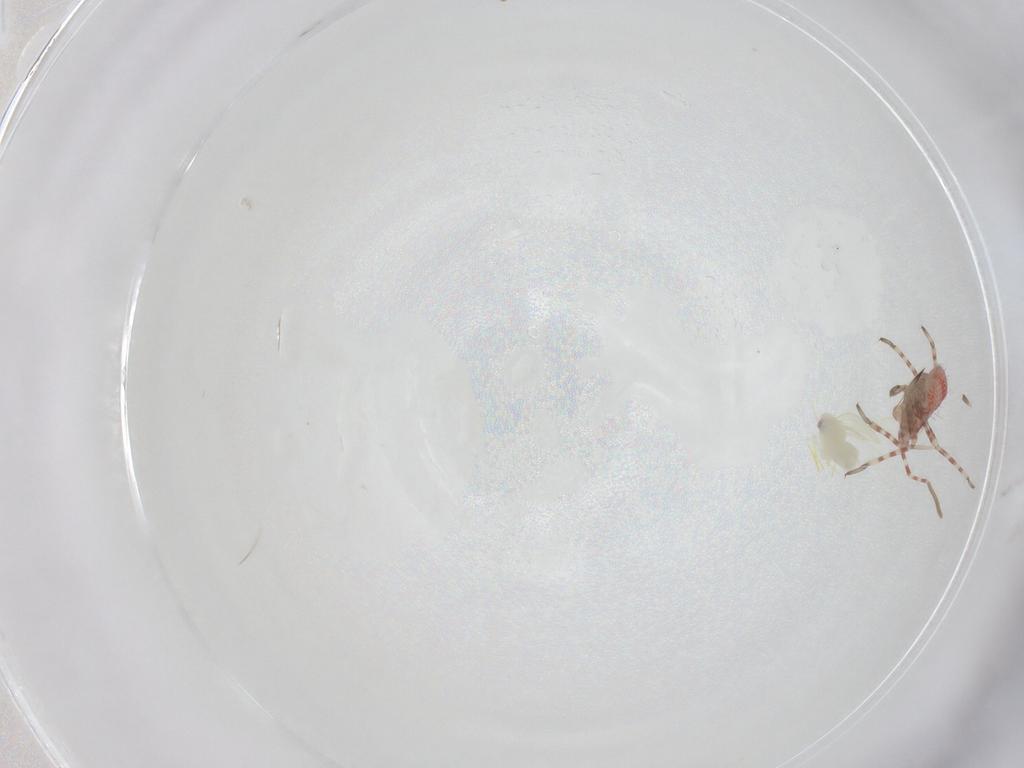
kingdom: Animalia
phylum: Arthropoda
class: Insecta
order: Hemiptera
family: Miridae
